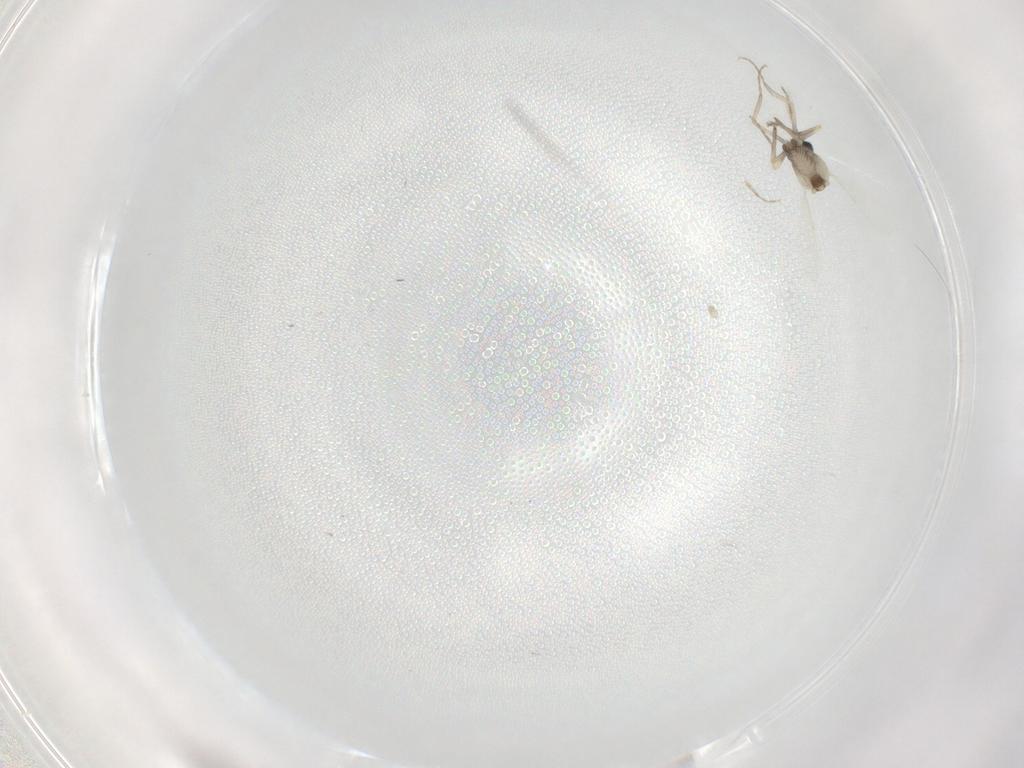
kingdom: Animalia
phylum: Arthropoda
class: Insecta
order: Diptera
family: Ceratopogonidae
